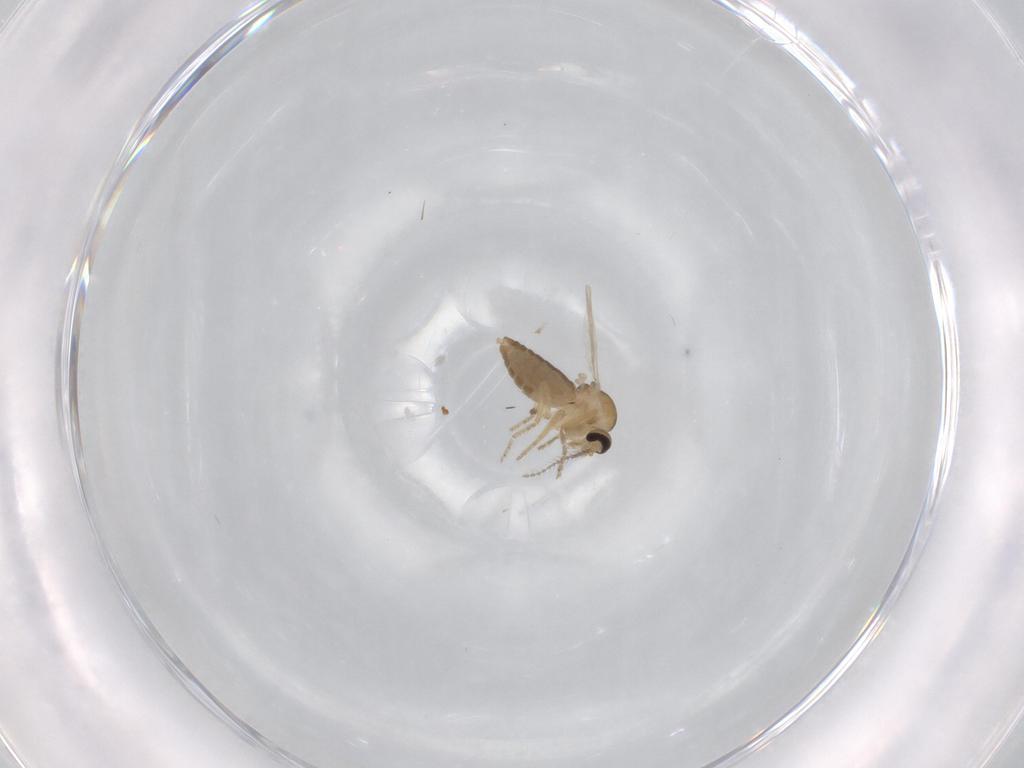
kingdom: Animalia
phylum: Arthropoda
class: Insecta
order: Diptera
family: Ceratopogonidae
